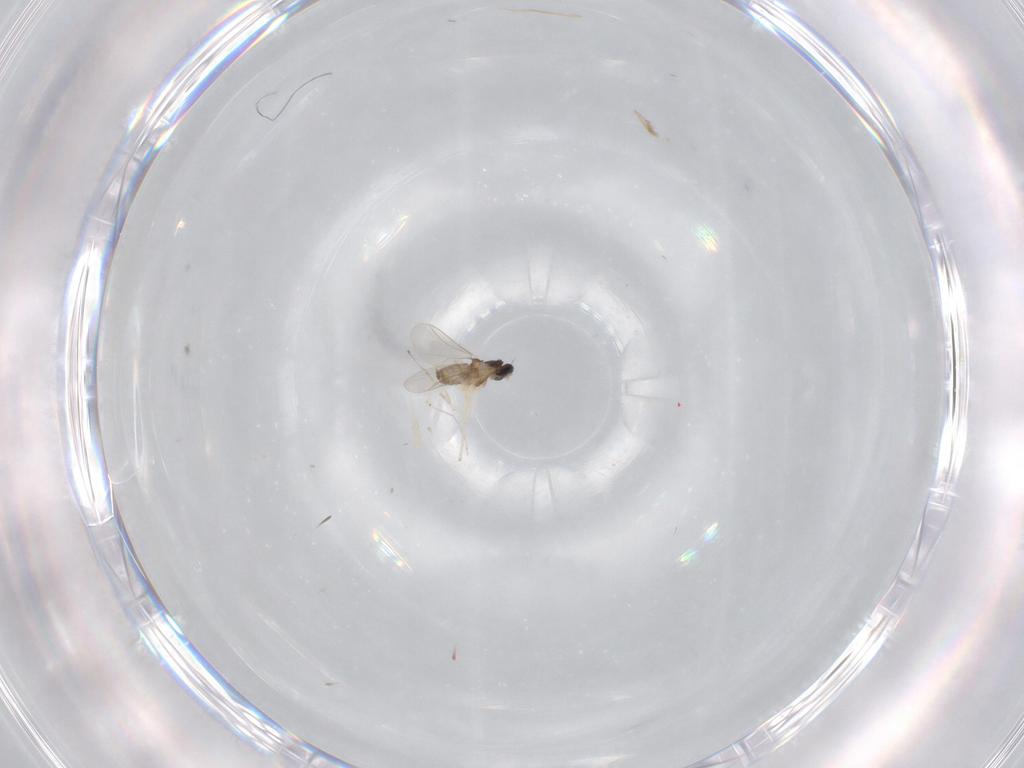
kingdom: Animalia
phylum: Arthropoda
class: Insecta
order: Diptera
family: Cecidomyiidae
